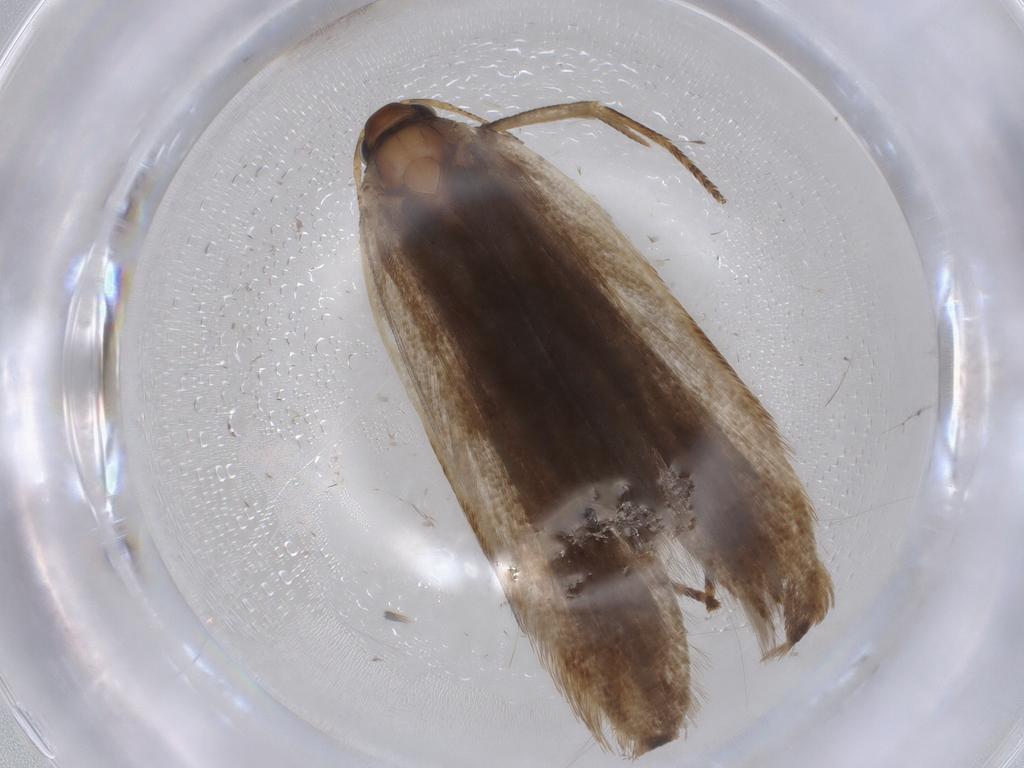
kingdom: Animalia
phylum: Arthropoda
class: Insecta
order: Lepidoptera
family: Gelechiidae
